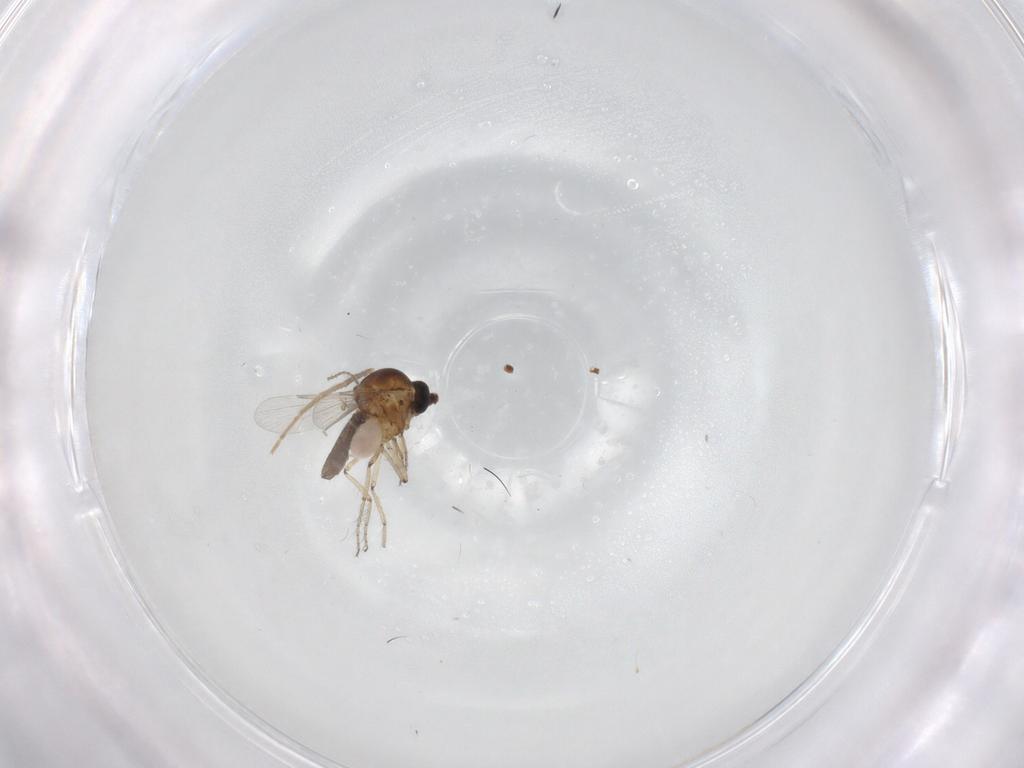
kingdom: Animalia
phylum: Arthropoda
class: Insecta
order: Diptera
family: Ceratopogonidae
